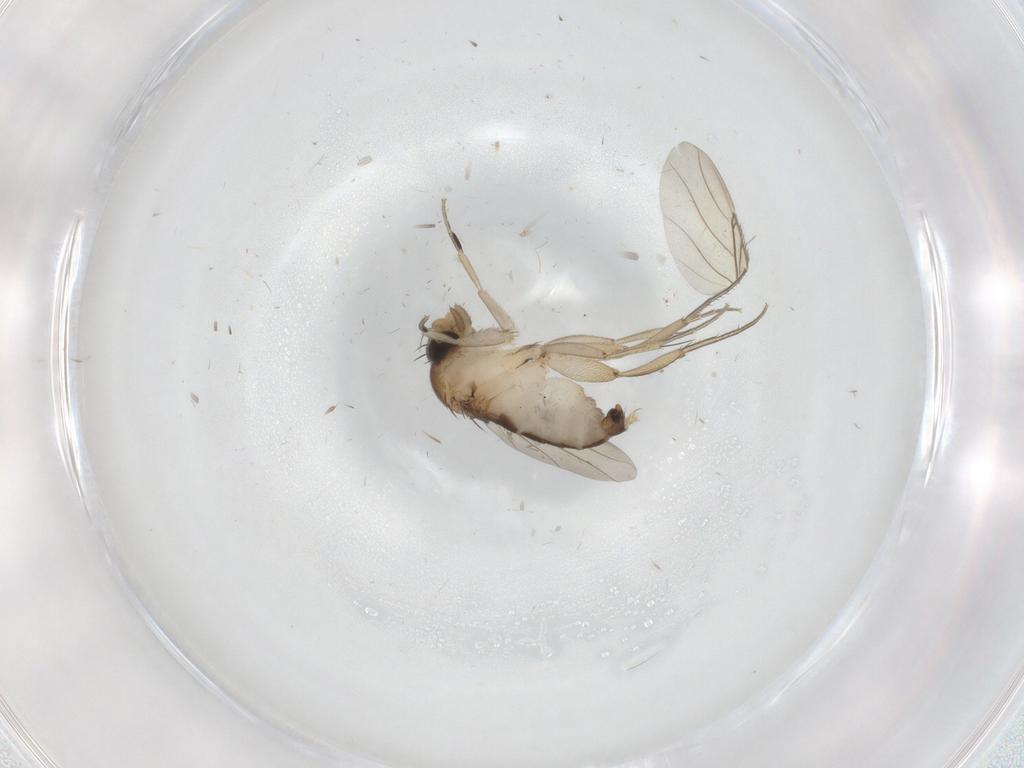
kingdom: Animalia
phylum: Arthropoda
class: Insecta
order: Diptera
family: Phoridae
